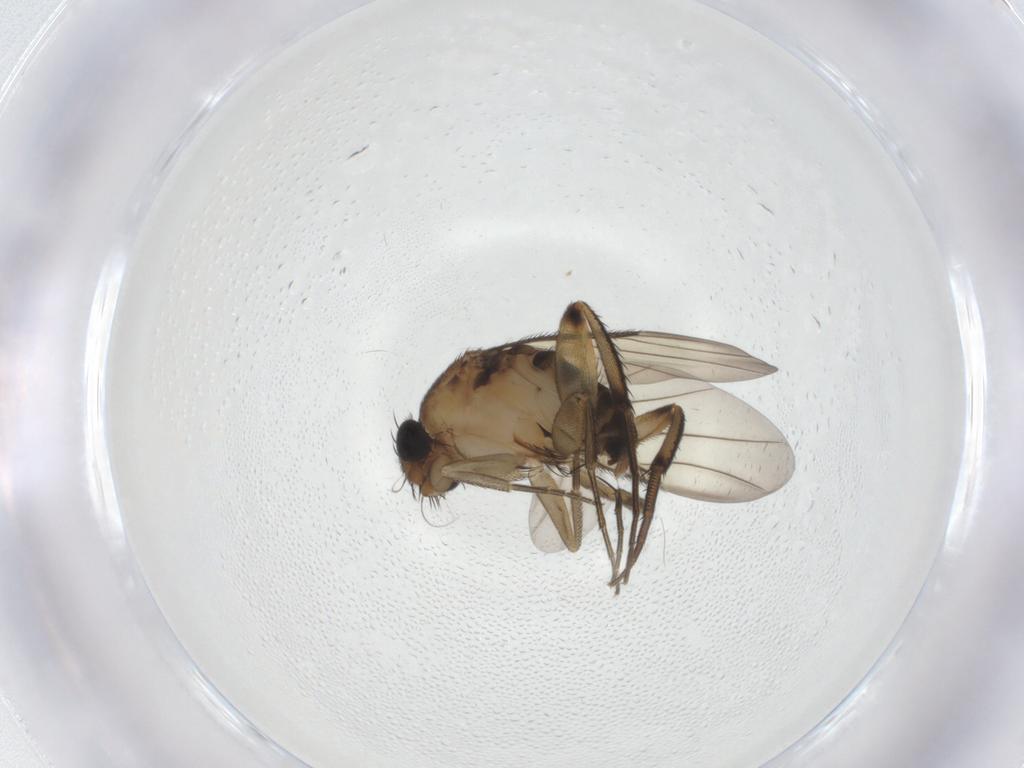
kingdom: Animalia
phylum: Arthropoda
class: Insecta
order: Diptera
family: Phoridae
